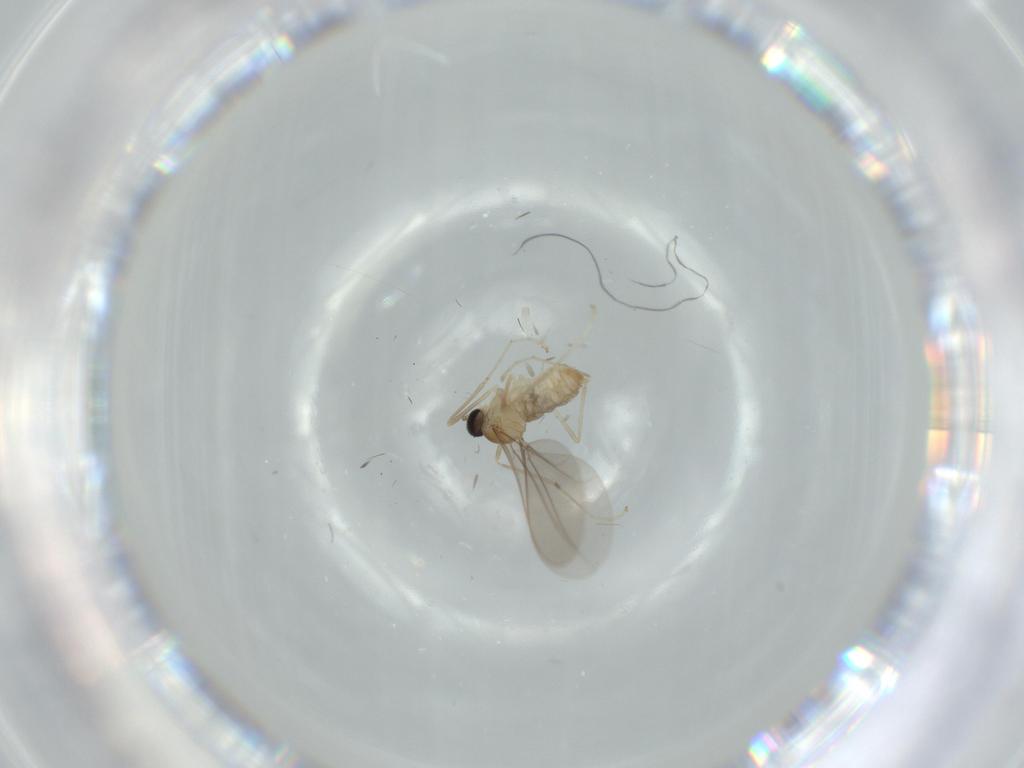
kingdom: Animalia
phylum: Arthropoda
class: Insecta
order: Diptera
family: Cecidomyiidae
